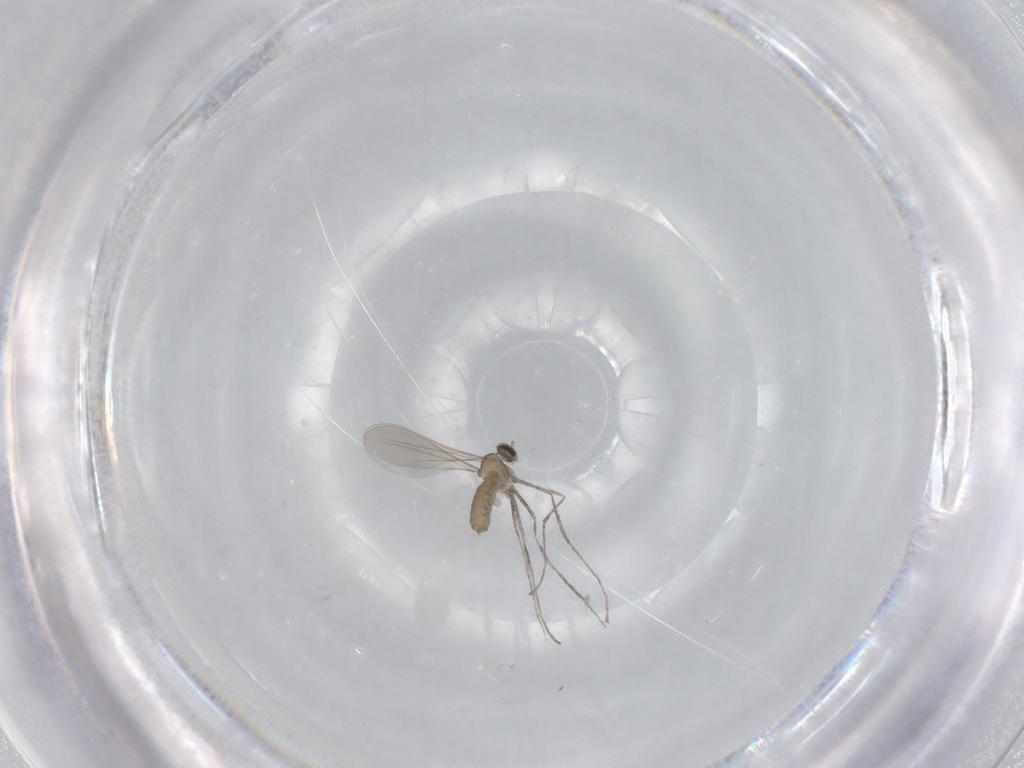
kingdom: Animalia
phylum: Arthropoda
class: Insecta
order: Diptera
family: Cecidomyiidae
